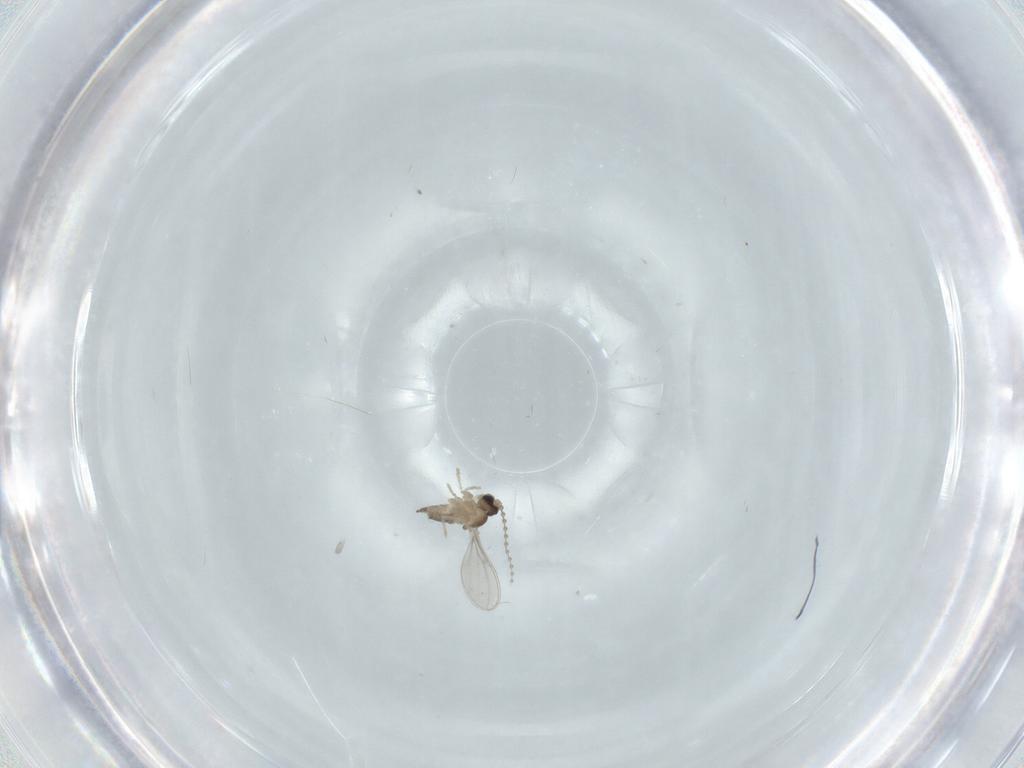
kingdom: Animalia
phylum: Arthropoda
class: Insecta
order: Diptera
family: Cecidomyiidae
